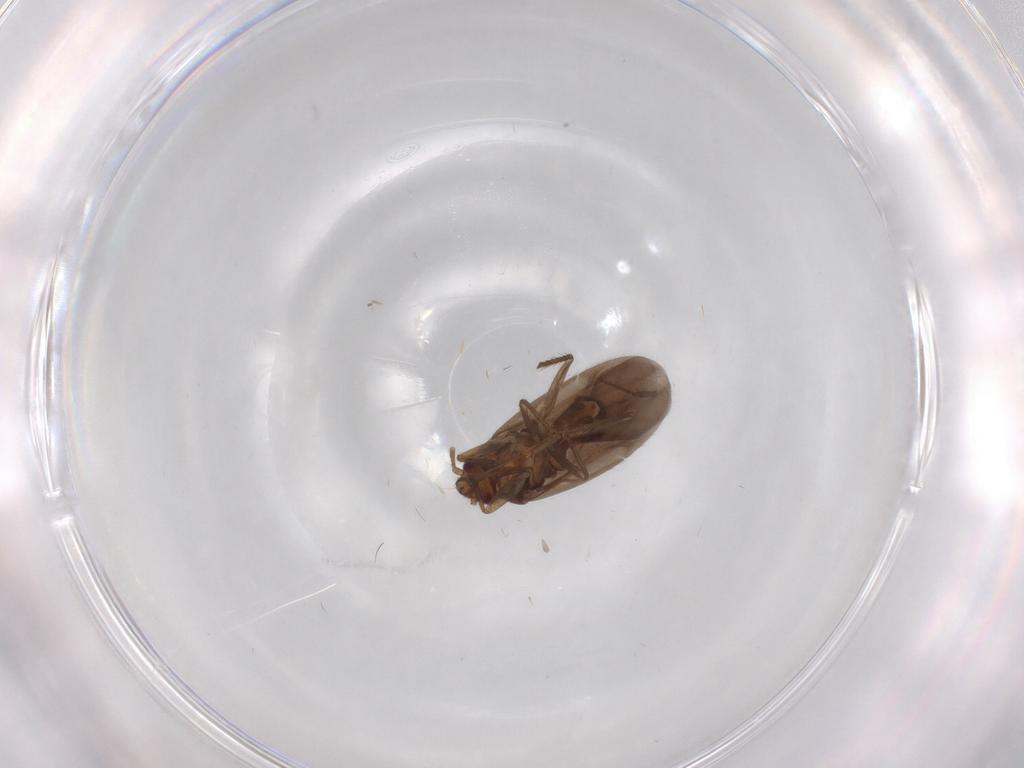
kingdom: Animalia
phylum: Arthropoda
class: Insecta
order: Hemiptera
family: Ceratocombidae
